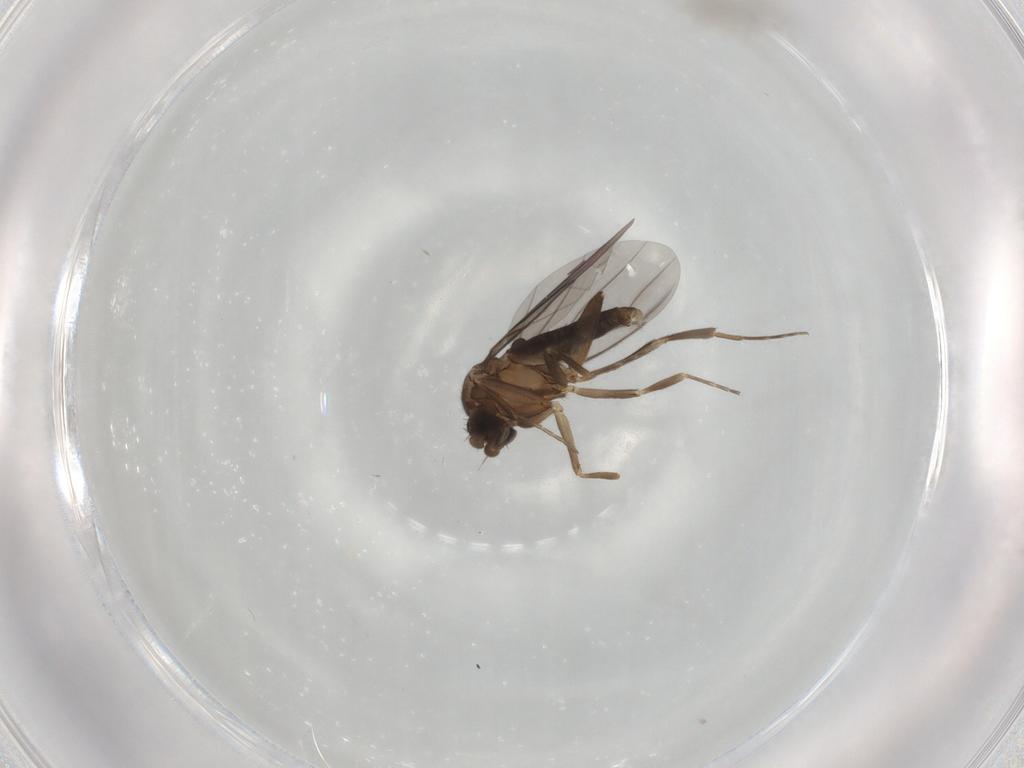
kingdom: Animalia
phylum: Arthropoda
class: Insecta
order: Diptera
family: Phoridae
